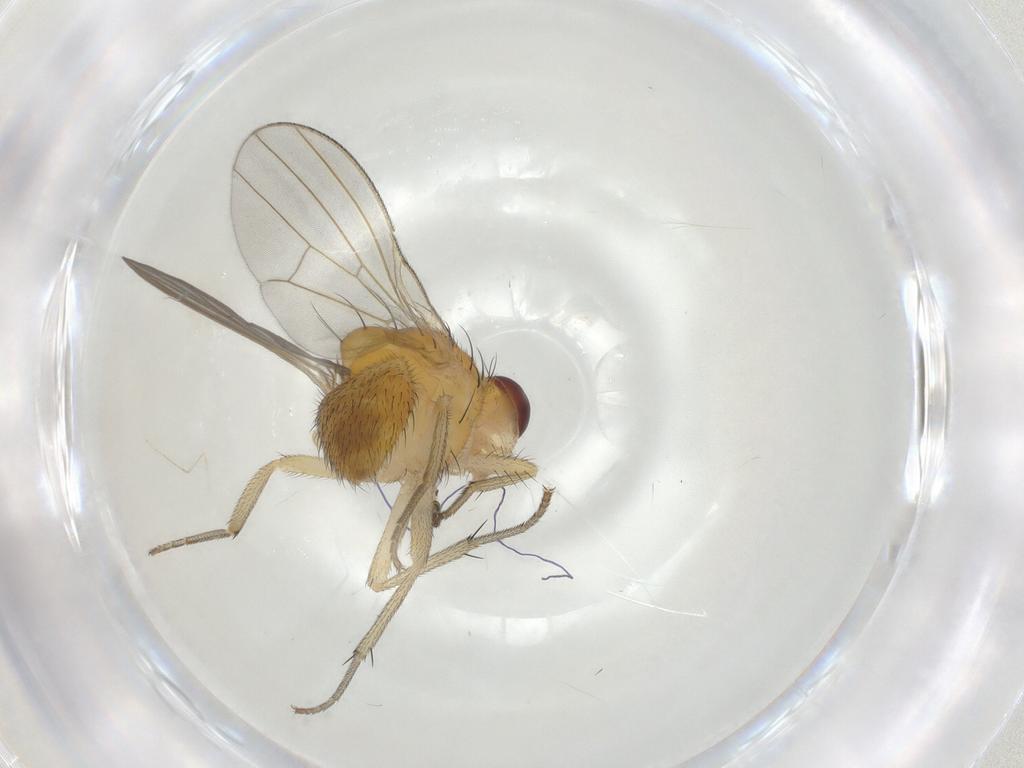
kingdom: Animalia
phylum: Arthropoda
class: Insecta
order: Diptera
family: Lauxaniidae
